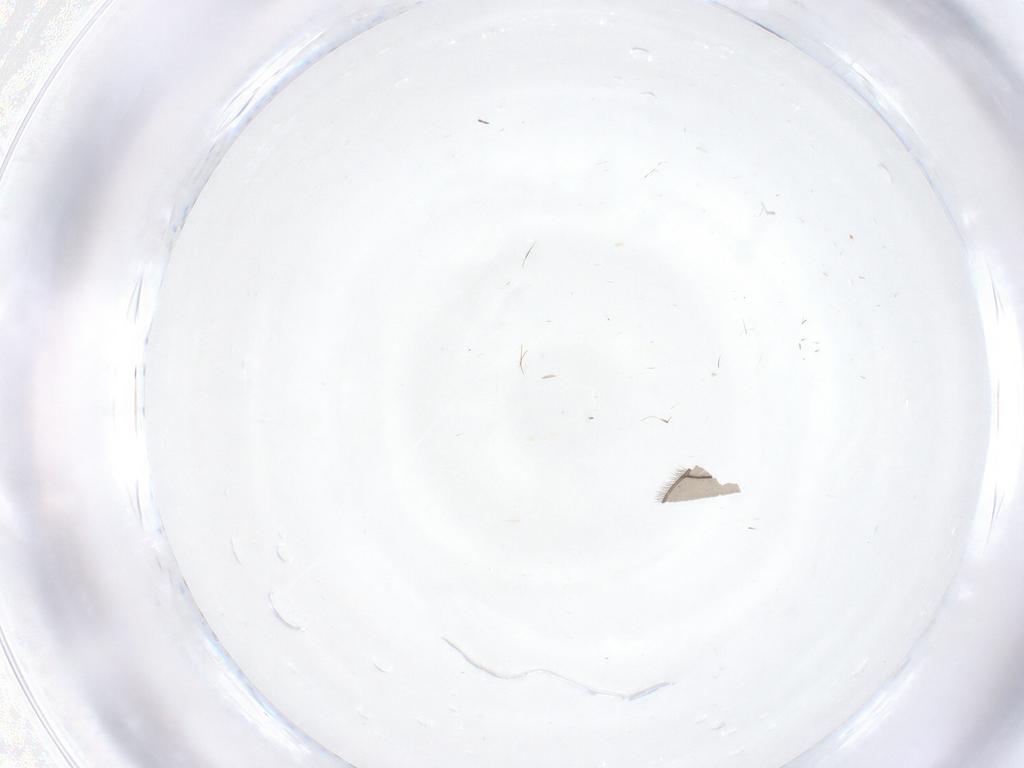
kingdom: Animalia
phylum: Arthropoda
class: Insecta
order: Diptera
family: Limoniidae
